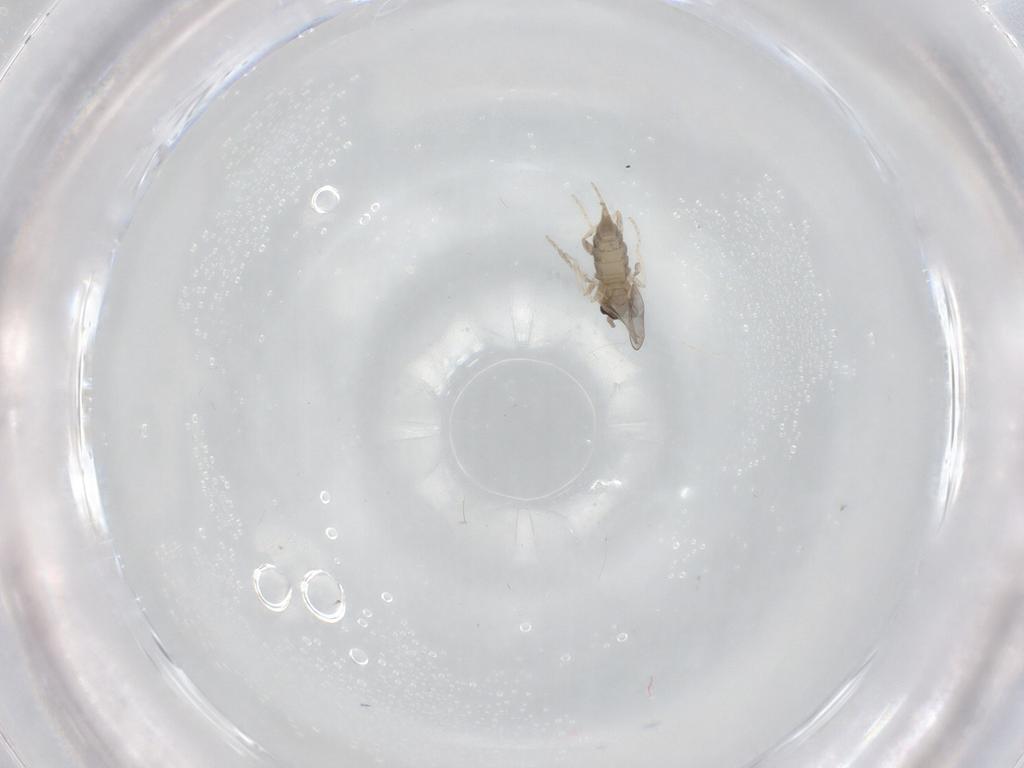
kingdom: Animalia
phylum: Arthropoda
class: Insecta
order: Diptera
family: Cecidomyiidae
